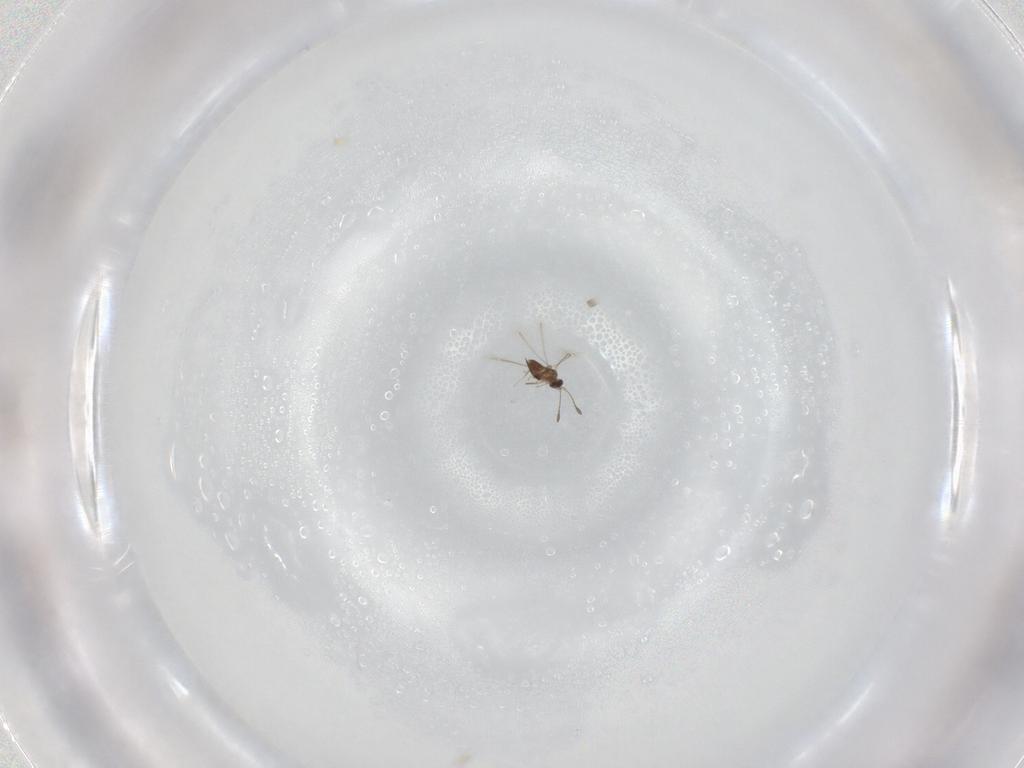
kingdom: Animalia
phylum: Arthropoda
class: Insecta
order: Hymenoptera
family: Aphelinidae
